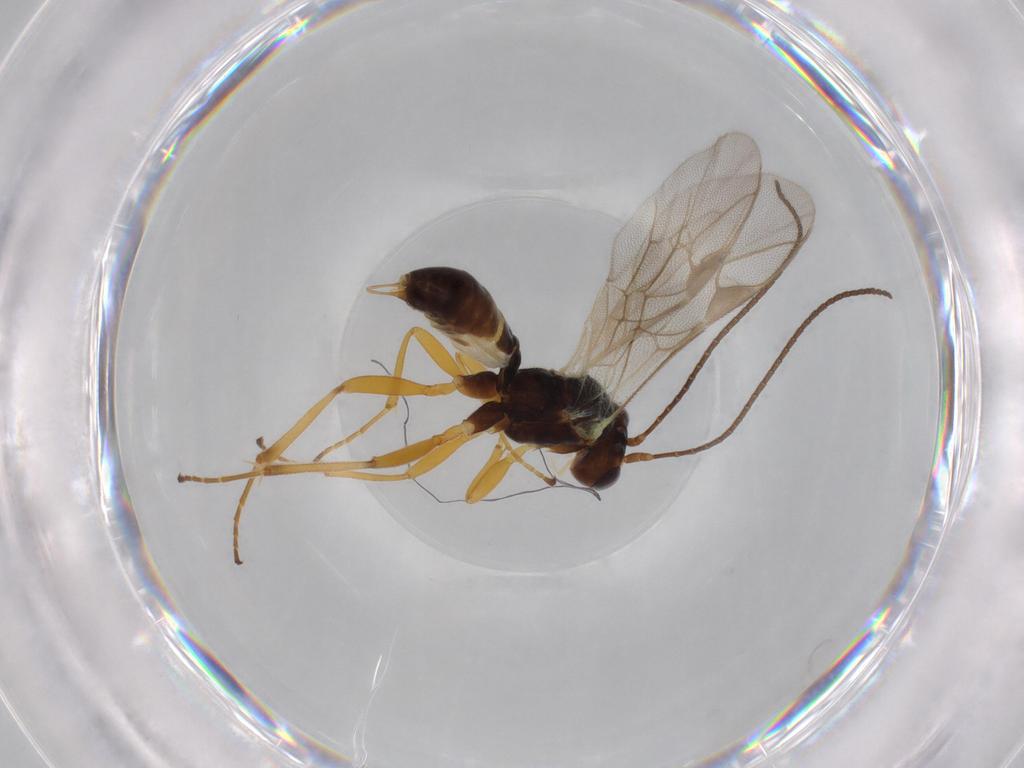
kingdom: Animalia
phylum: Arthropoda
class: Insecta
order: Hymenoptera
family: Ichneumonidae
